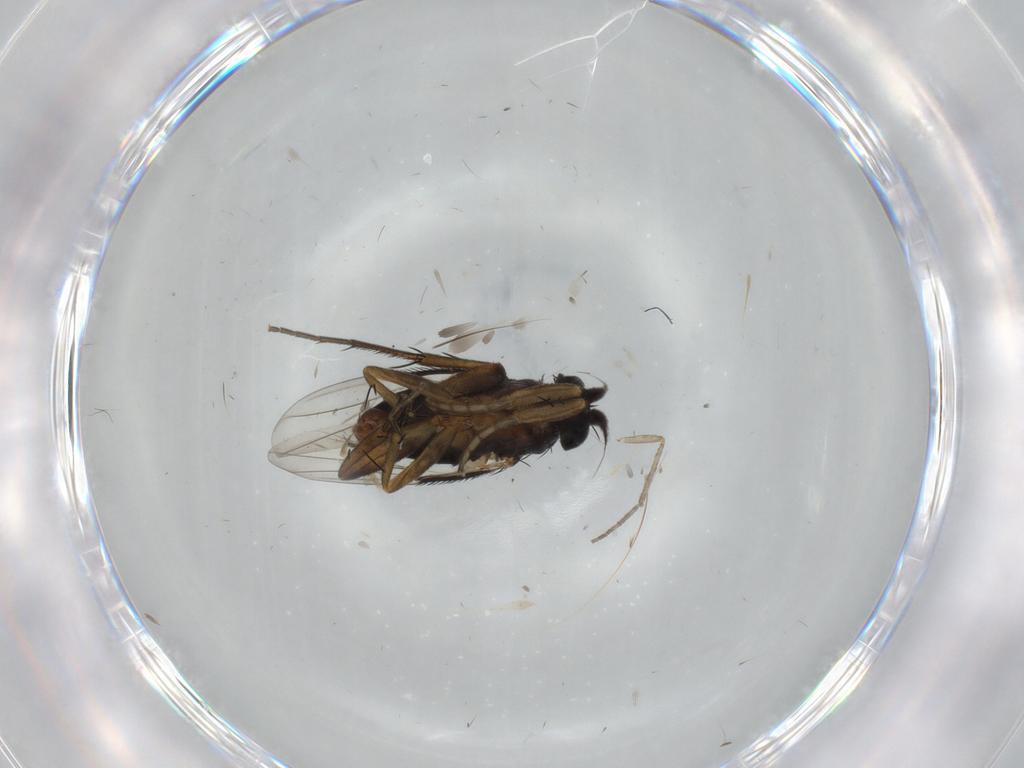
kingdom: Animalia
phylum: Arthropoda
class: Insecta
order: Diptera
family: Phoridae
